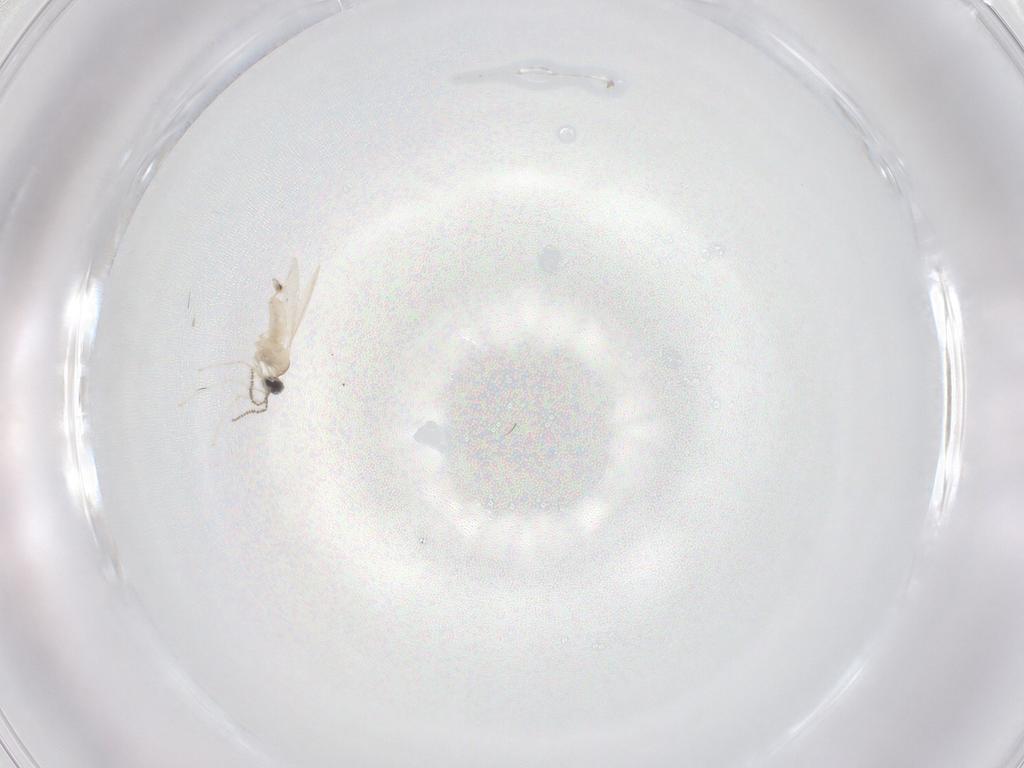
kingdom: Animalia
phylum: Arthropoda
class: Insecta
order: Diptera
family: Cecidomyiidae
